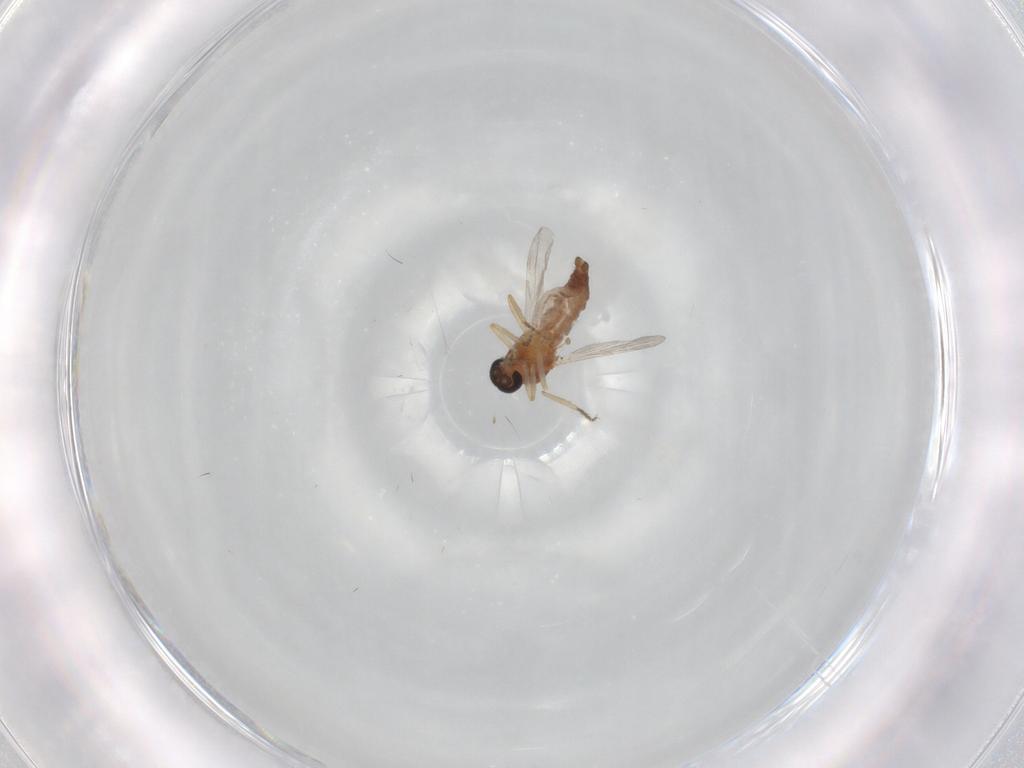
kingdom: Animalia
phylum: Arthropoda
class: Insecta
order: Diptera
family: Ceratopogonidae
